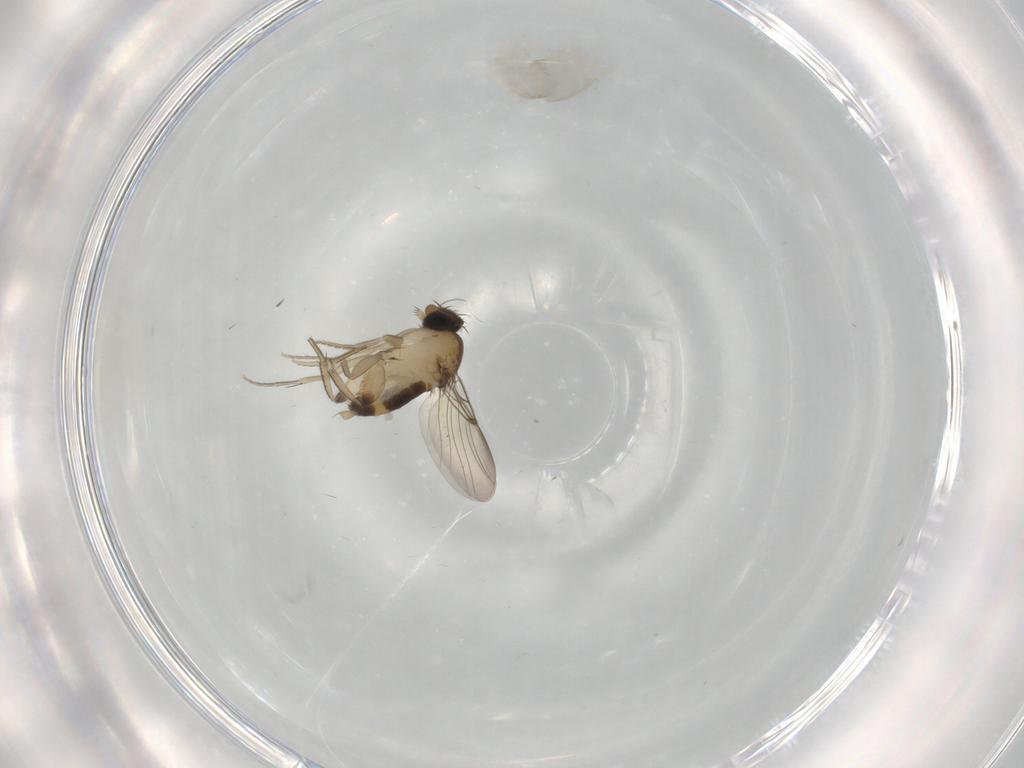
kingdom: Animalia
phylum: Arthropoda
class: Insecta
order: Diptera
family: Phoridae
